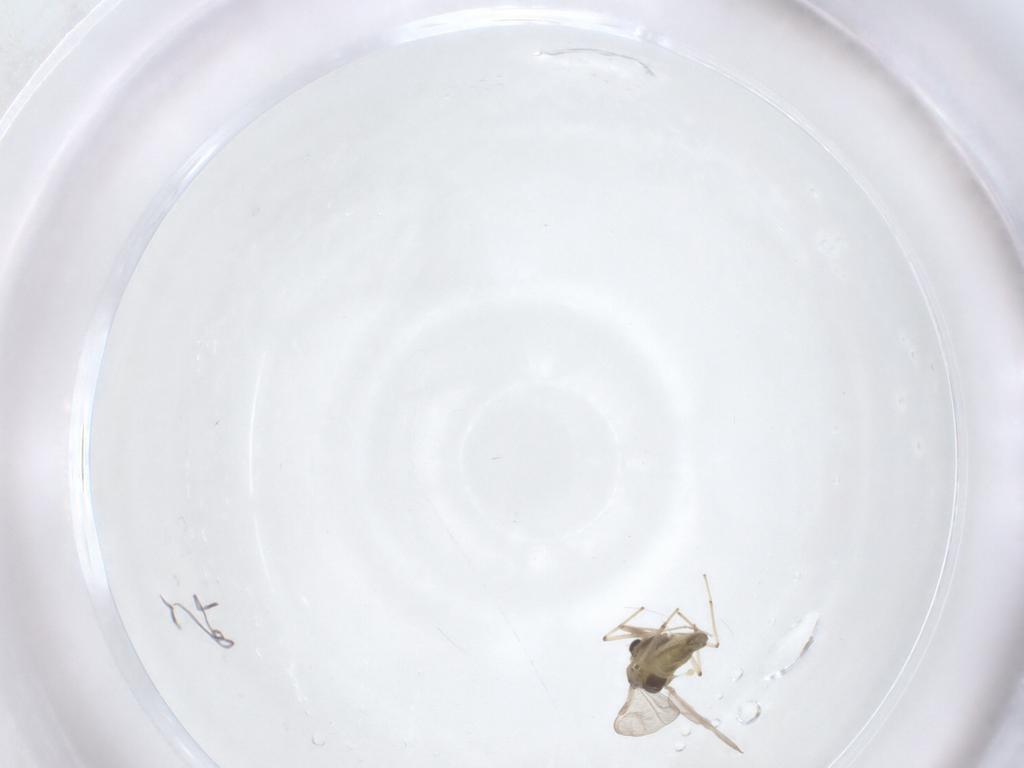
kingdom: Animalia
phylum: Arthropoda
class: Insecta
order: Diptera
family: Chironomidae
